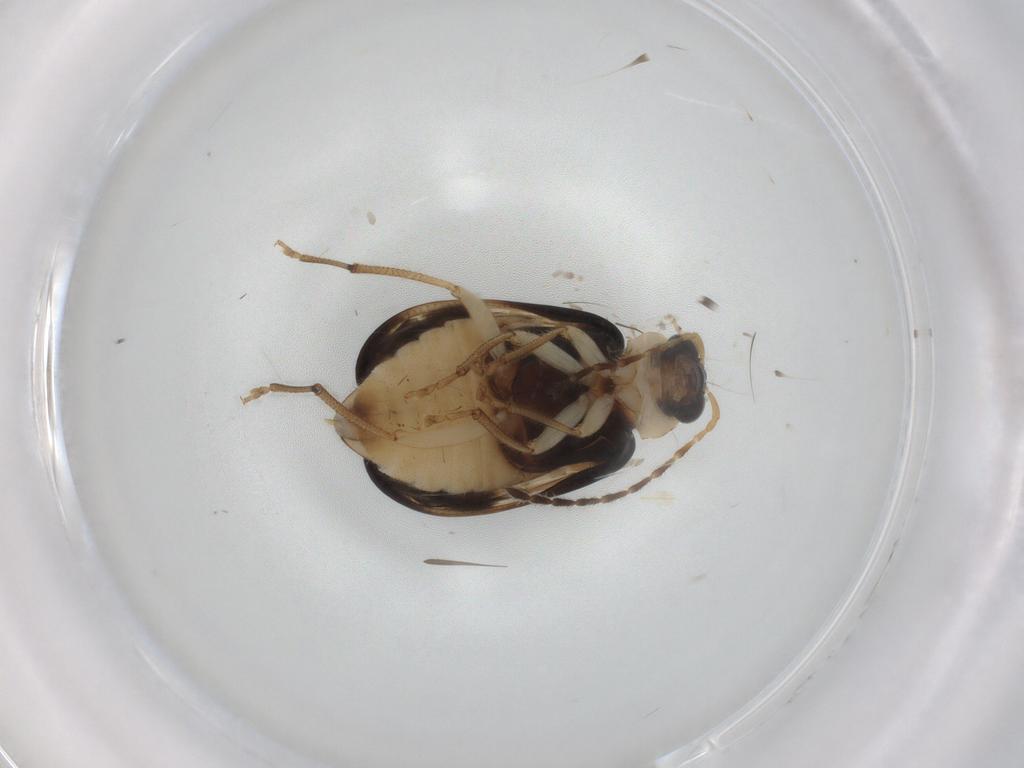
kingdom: Animalia
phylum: Arthropoda
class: Insecta
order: Coleoptera
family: Chrysomelidae
